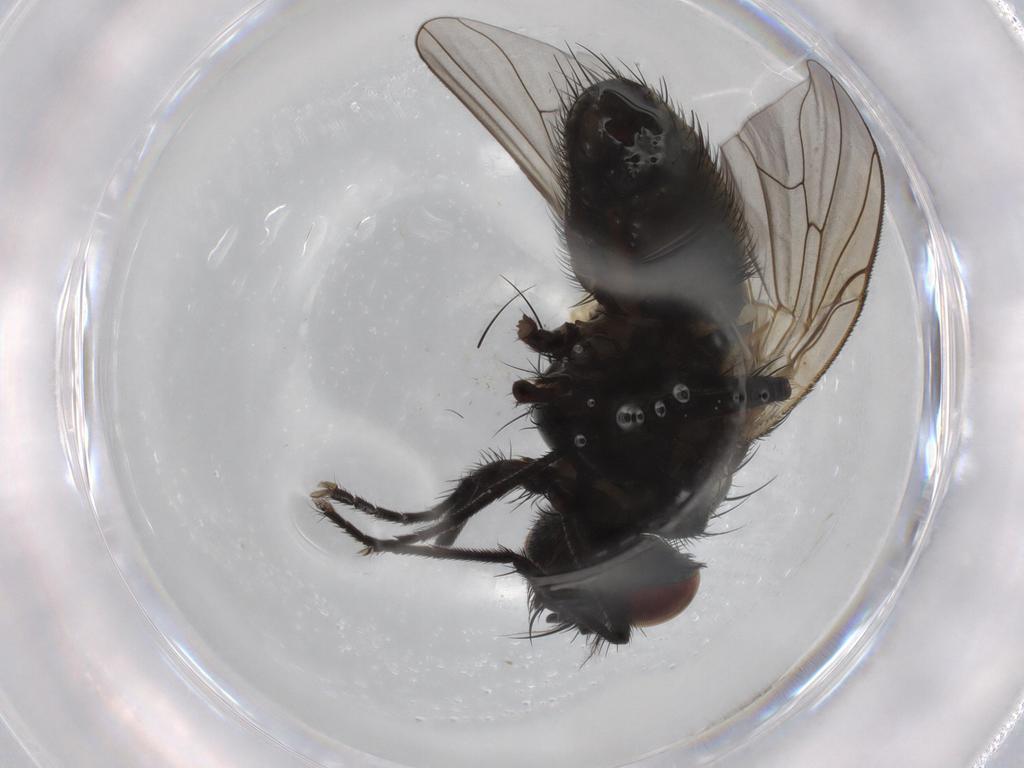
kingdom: Animalia
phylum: Arthropoda
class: Insecta
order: Diptera
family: Muscidae
